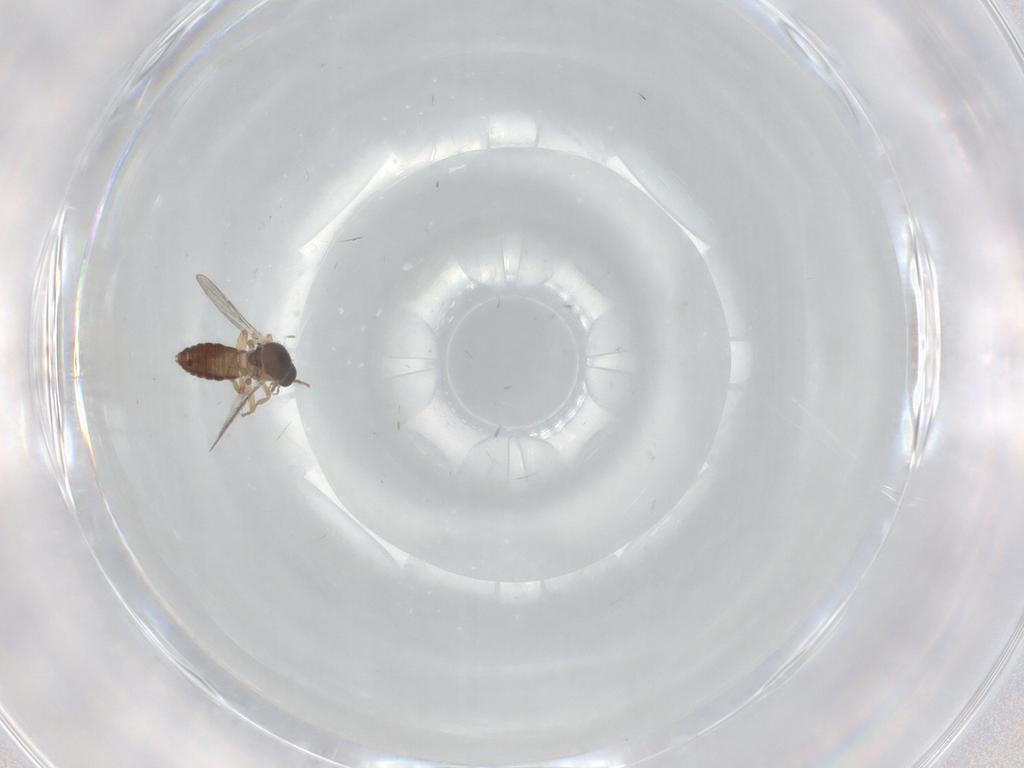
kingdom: Animalia
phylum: Arthropoda
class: Insecta
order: Diptera
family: Ceratopogonidae
